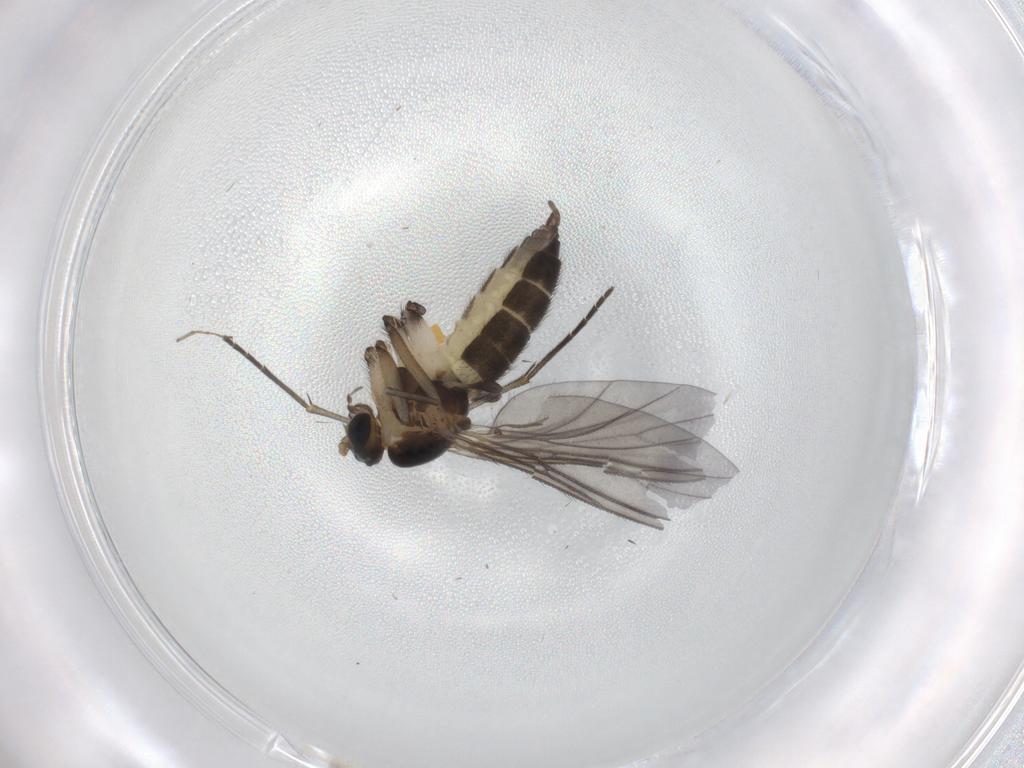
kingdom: Animalia
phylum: Arthropoda
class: Insecta
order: Diptera
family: Sciaridae
